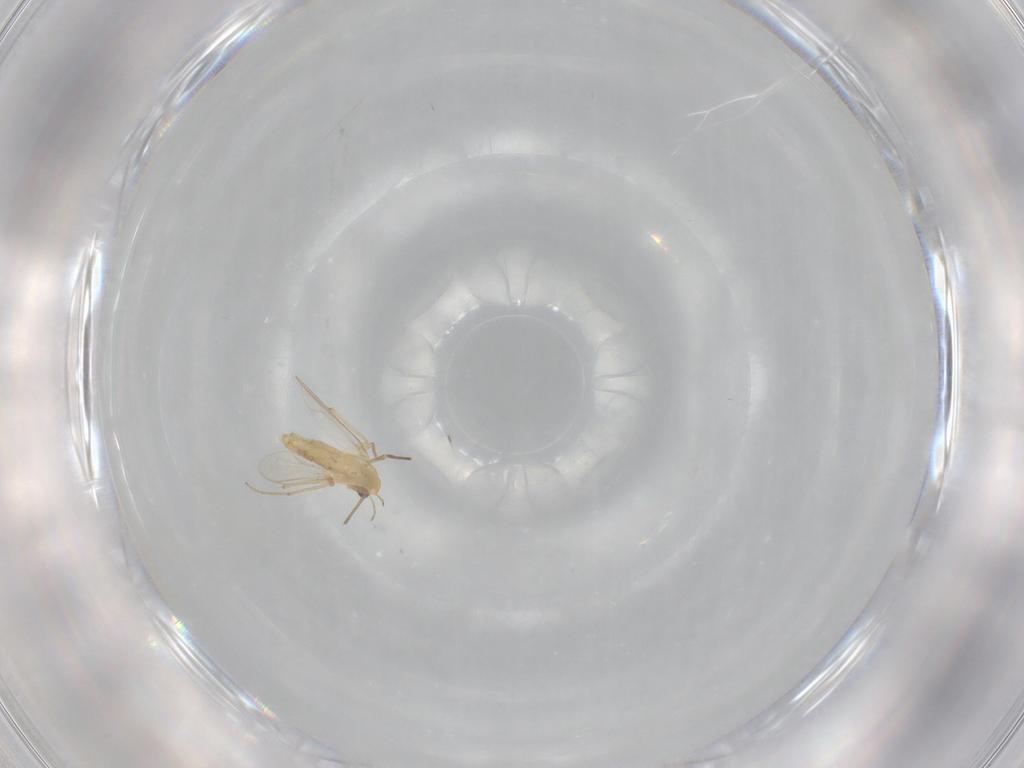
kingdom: Animalia
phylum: Arthropoda
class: Insecta
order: Diptera
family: Chironomidae
